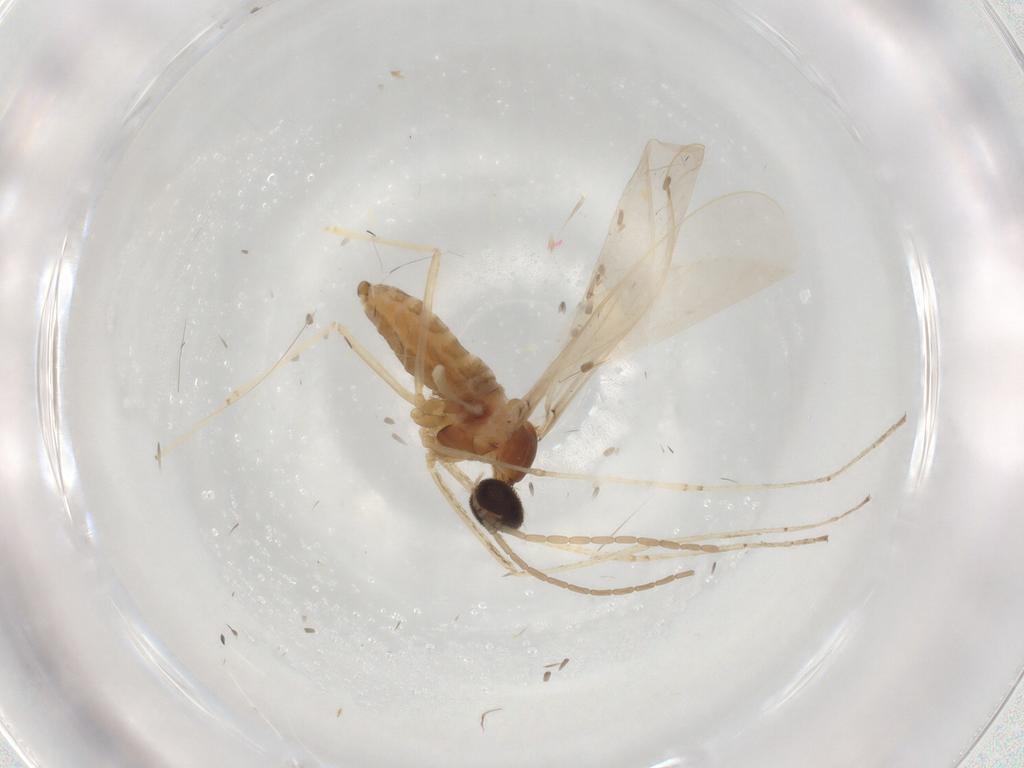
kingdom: Animalia
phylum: Arthropoda
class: Insecta
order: Diptera
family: Cecidomyiidae
